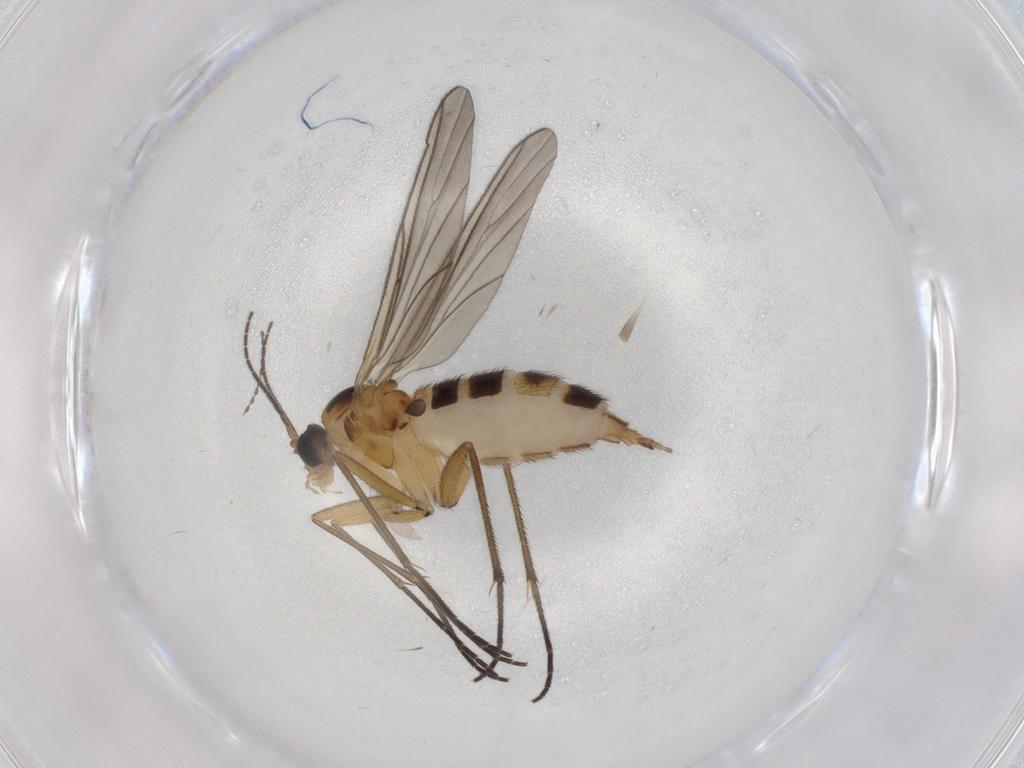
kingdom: Animalia
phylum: Arthropoda
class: Insecta
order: Diptera
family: Cecidomyiidae
